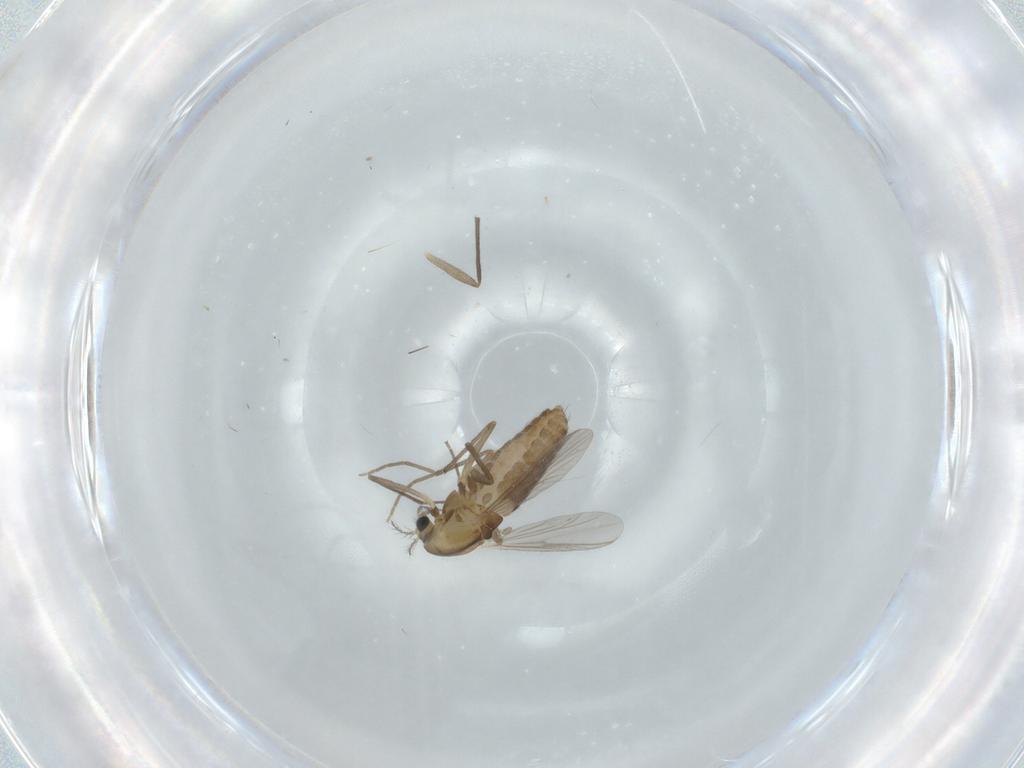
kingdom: Animalia
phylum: Arthropoda
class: Insecta
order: Diptera
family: Chironomidae
